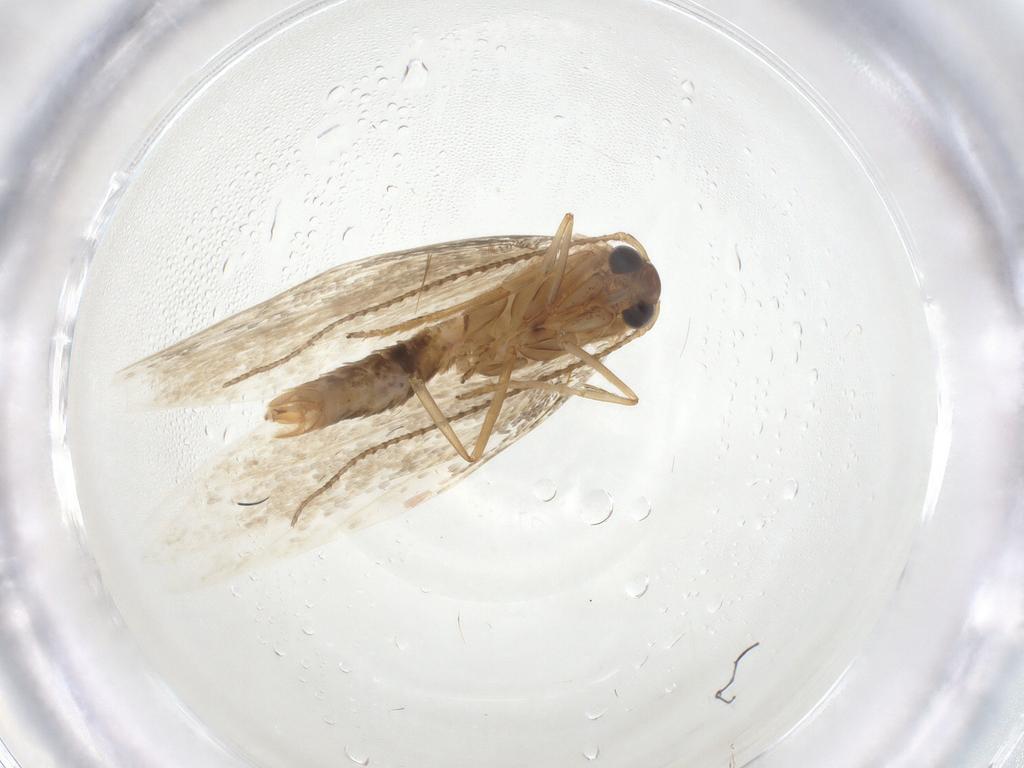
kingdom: Animalia
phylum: Arthropoda
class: Insecta
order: Lepidoptera
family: Erebidae
